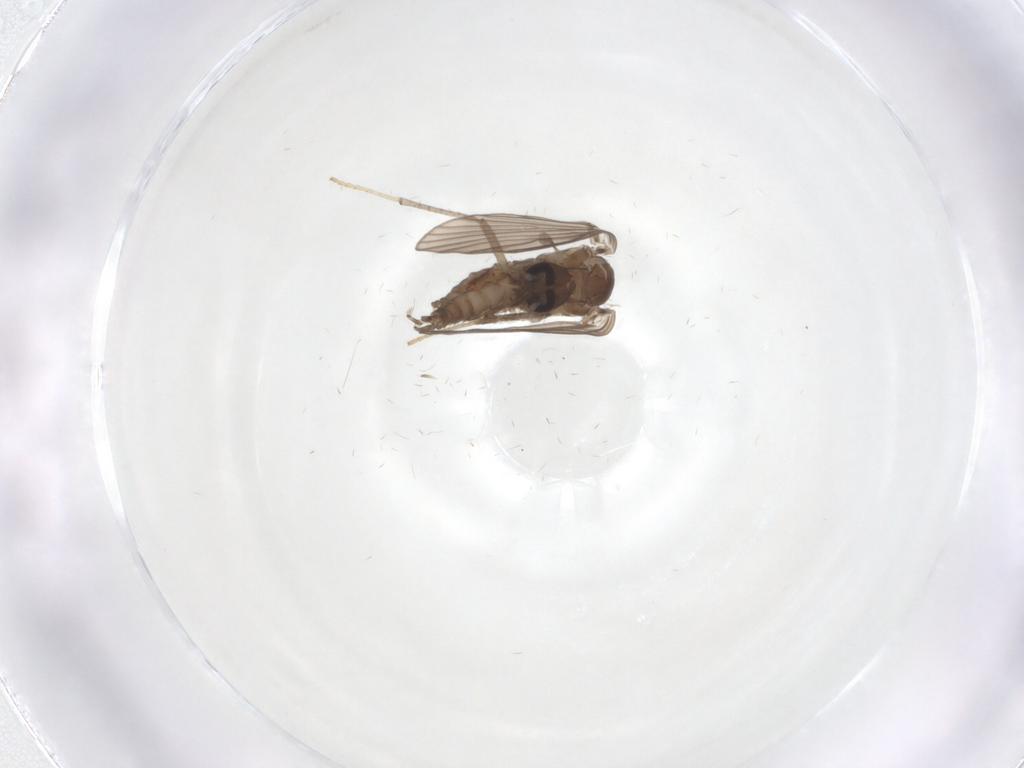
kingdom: Animalia
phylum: Arthropoda
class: Insecta
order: Diptera
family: Psychodidae
